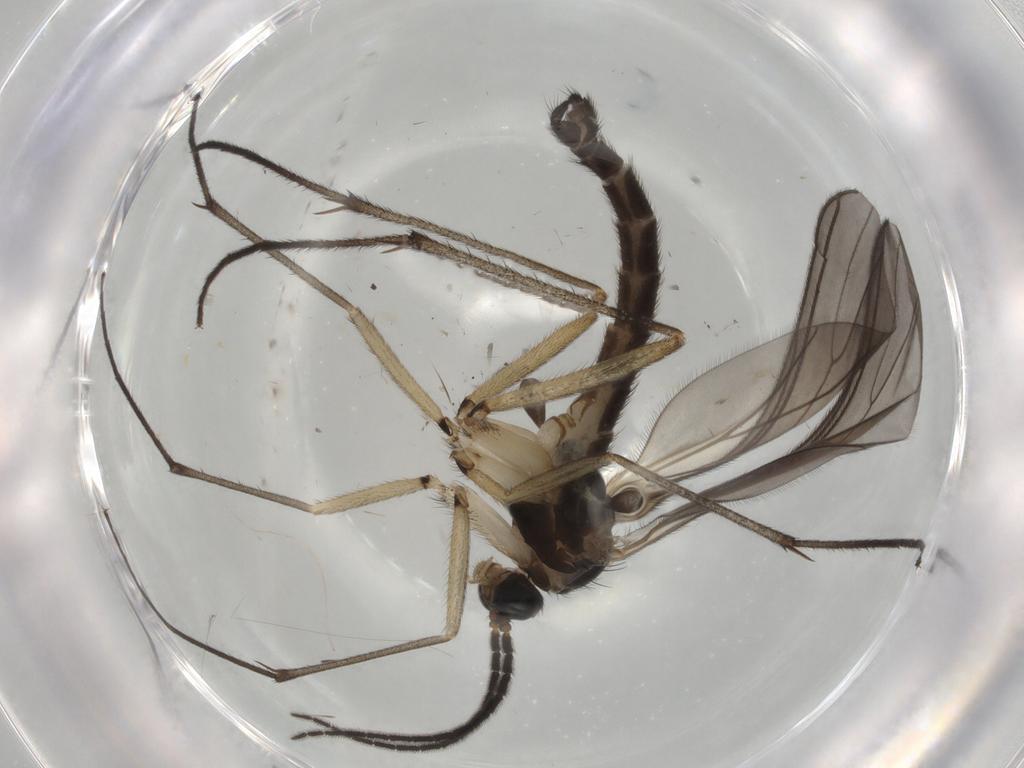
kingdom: Animalia
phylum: Arthropoda
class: Insecta
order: Diptera
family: Sciaridae
